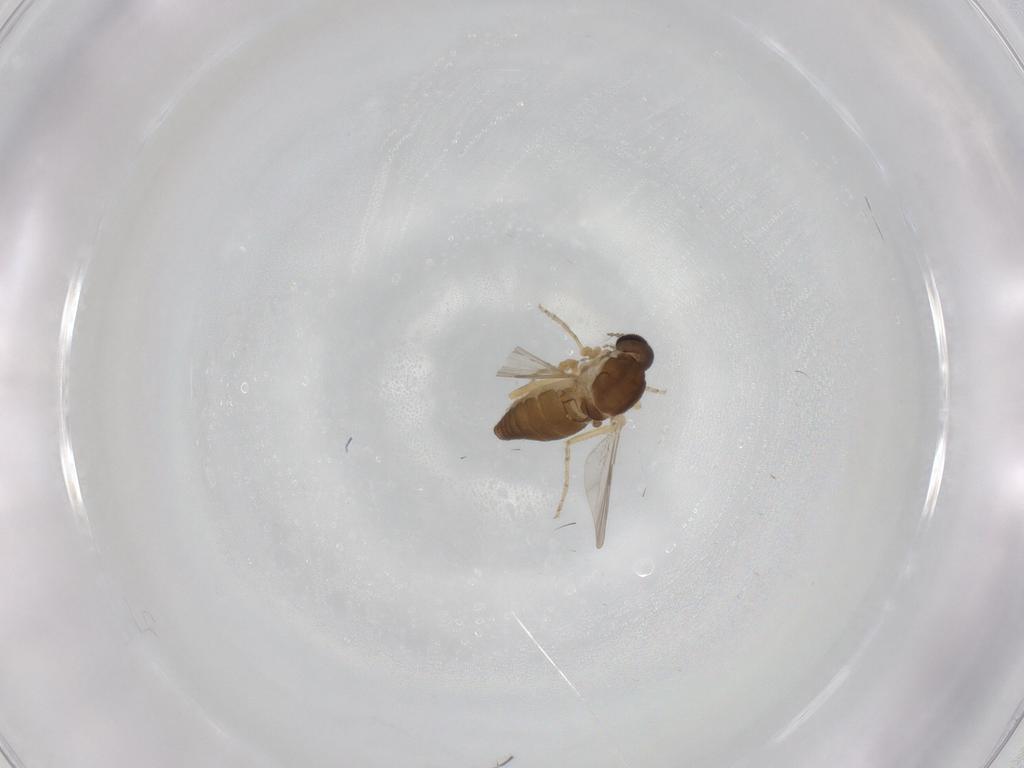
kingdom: Animalia
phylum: Arthropoda
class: Insecta
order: Diptera
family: Ceratopogonidae
